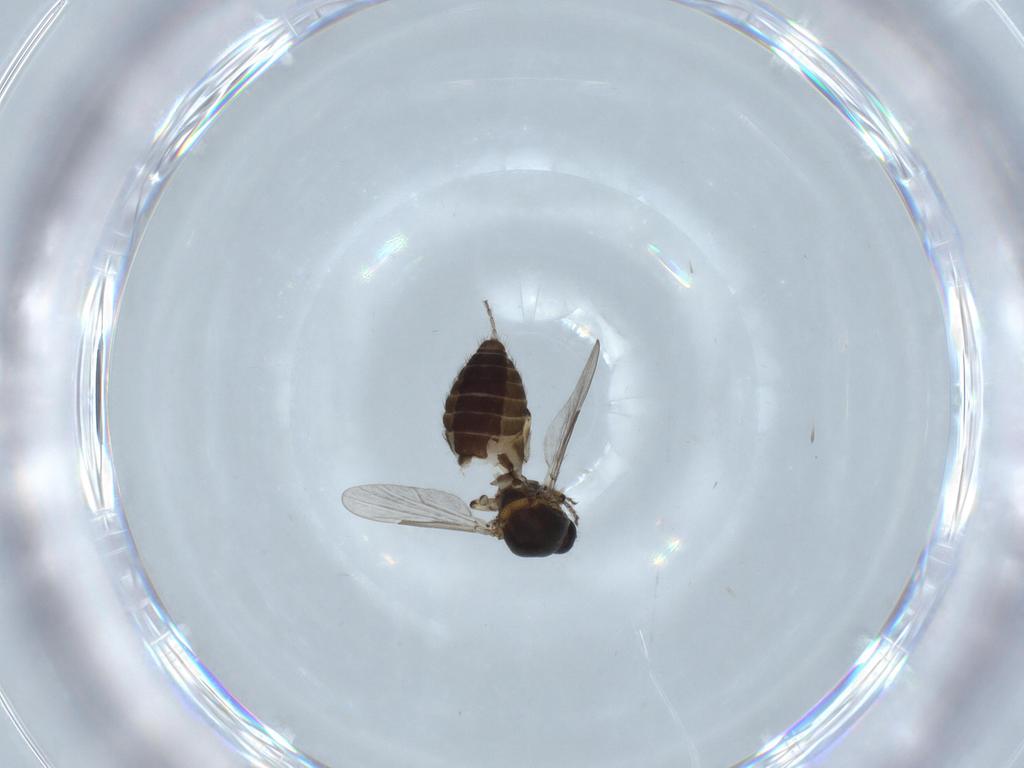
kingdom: Animalia
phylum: Arthropoda
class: Insecta
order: Diptera
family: Ceratopogonidae
